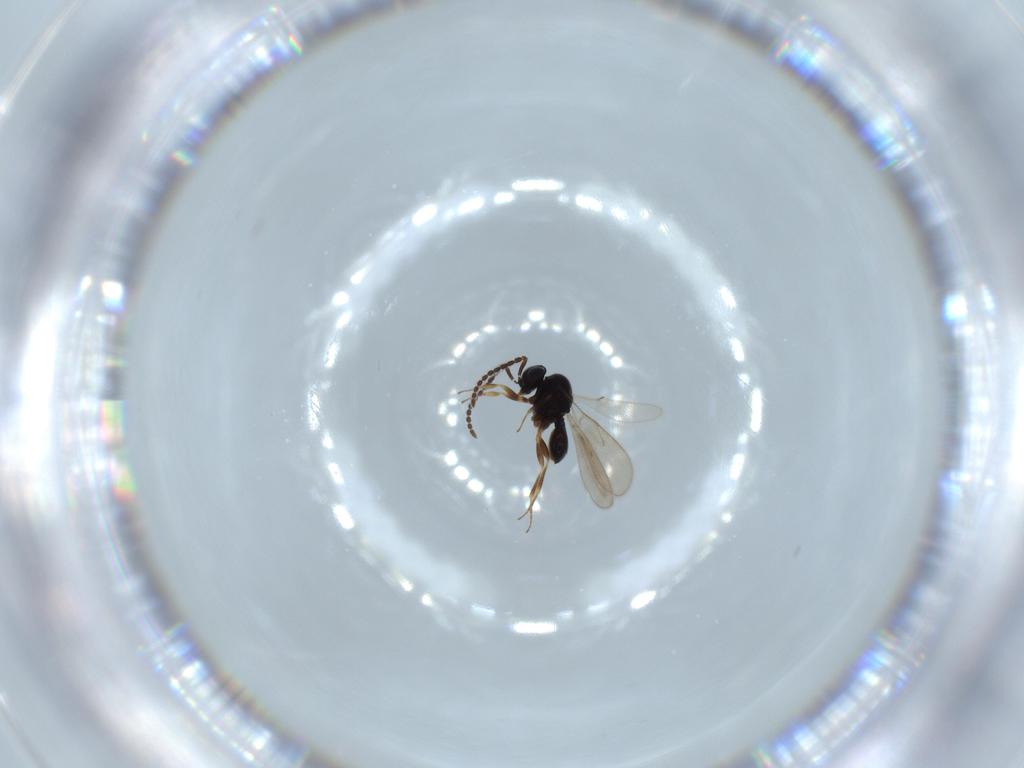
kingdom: Animalia
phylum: Arthropoda
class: Insecta
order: Hymenoptera
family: Scelionidae
